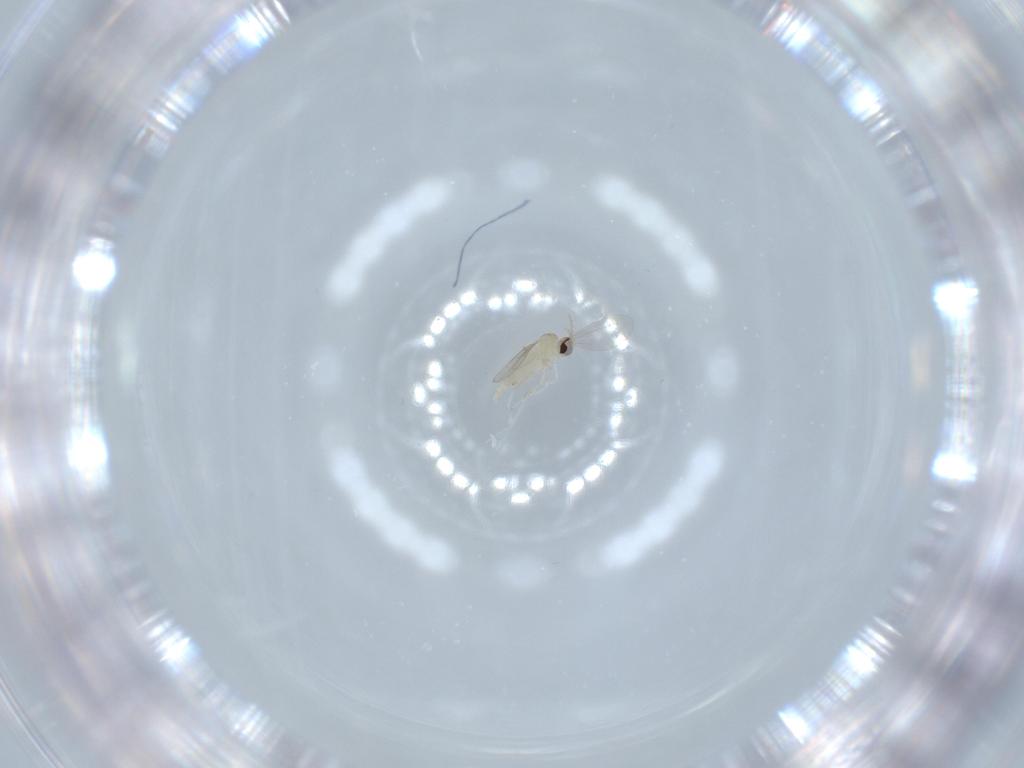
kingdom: Animalia
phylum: Arthropoda
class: Insecta
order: Diptera
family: Cecidomyiidae
